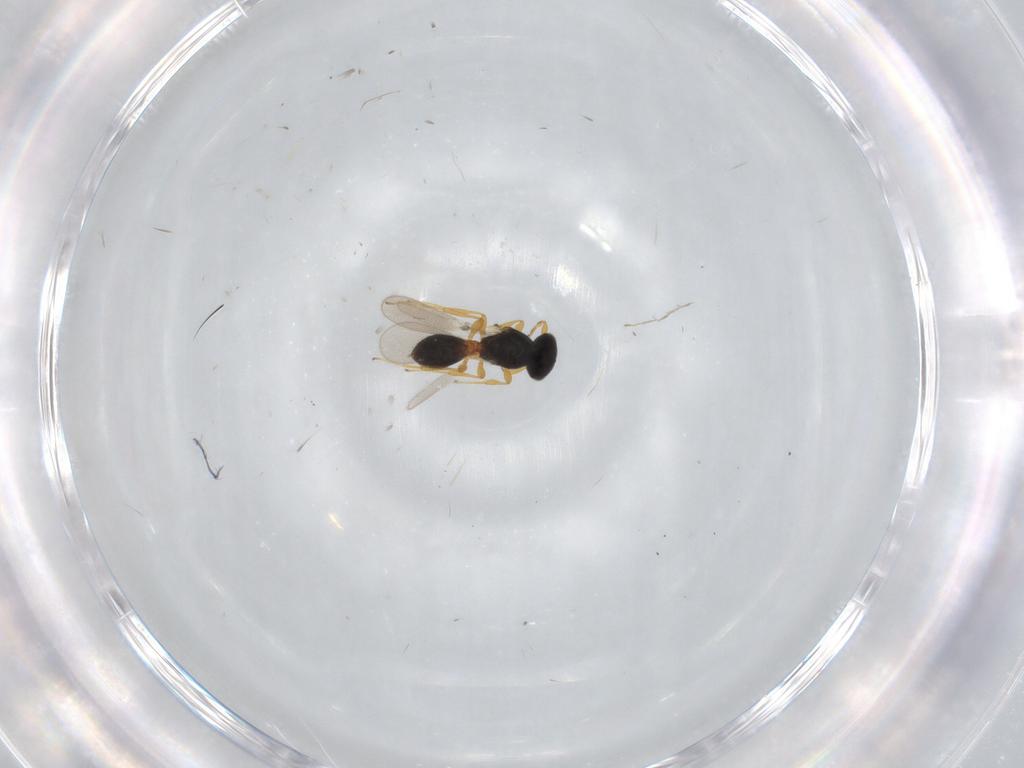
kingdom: Animalia
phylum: Arthropoda
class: Insecta
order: Hymenoptera
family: Platygastridae
